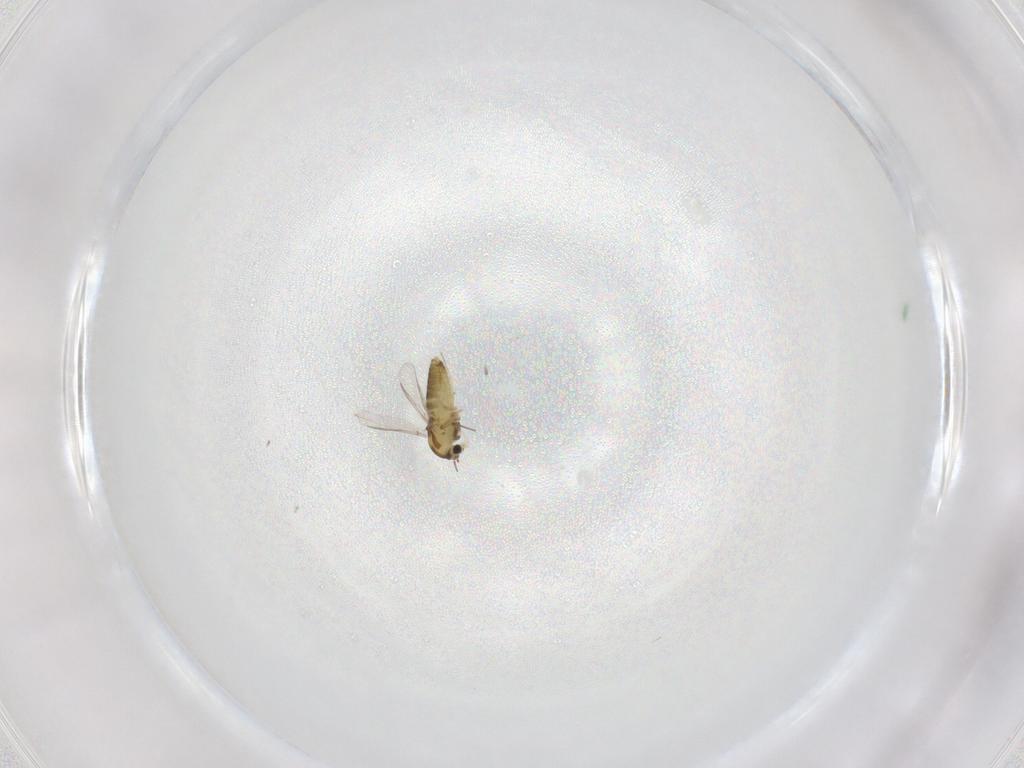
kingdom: Animalia
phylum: Arthropoda
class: Insecta
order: Diptera
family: Chironomidae
